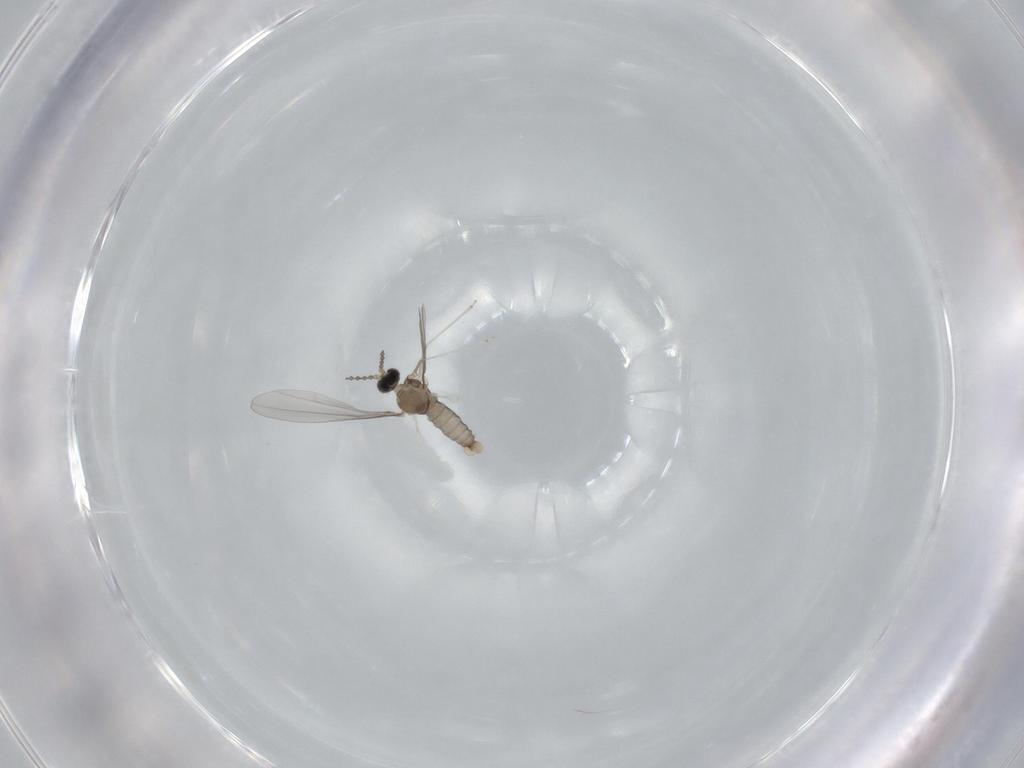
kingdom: Animalia
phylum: Arthropoda
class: Insecta
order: Diptera
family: Cecidomyiidae
